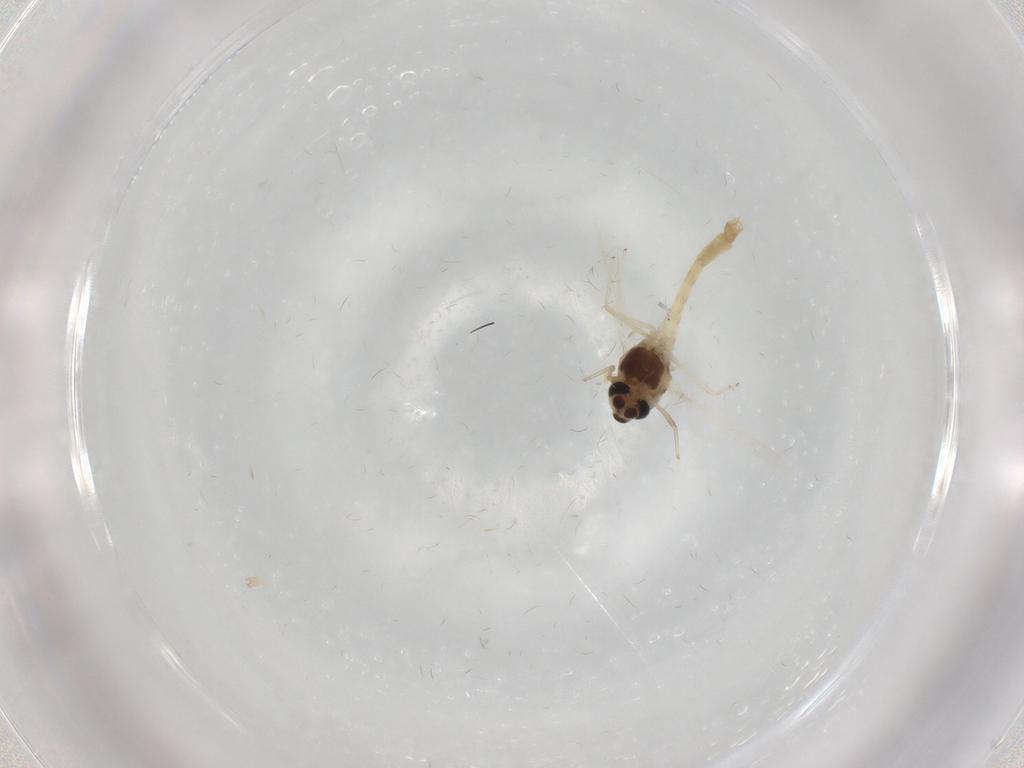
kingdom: Animalia
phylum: Arthropoda
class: Insecta
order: Diptera
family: Chironomidae
